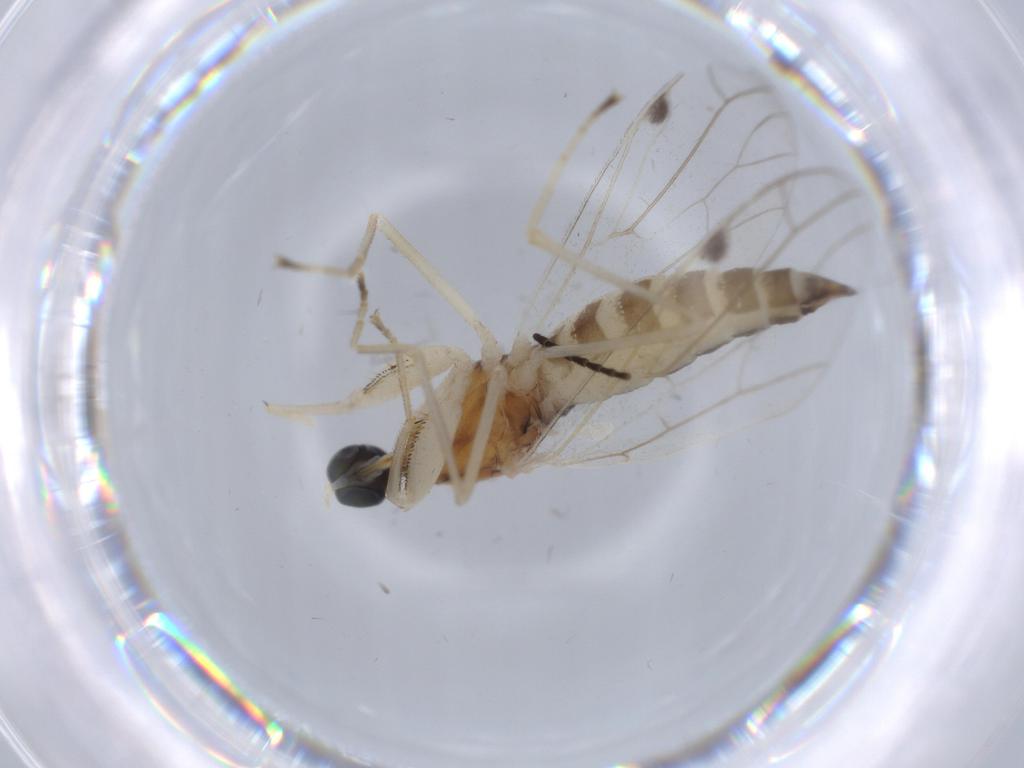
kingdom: Animalia
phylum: Arthropoda
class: Insecta
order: Diptera
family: Empididae
